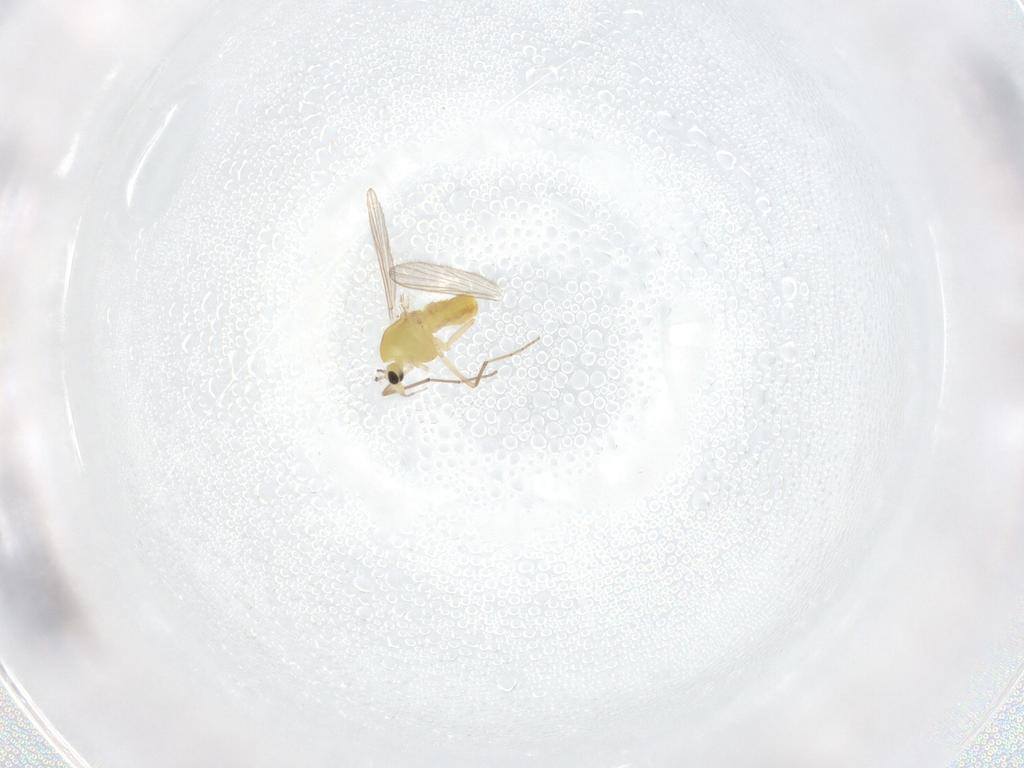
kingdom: Animalia
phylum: Arthropoda
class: Insecta
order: Diptera
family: Chironomidae
